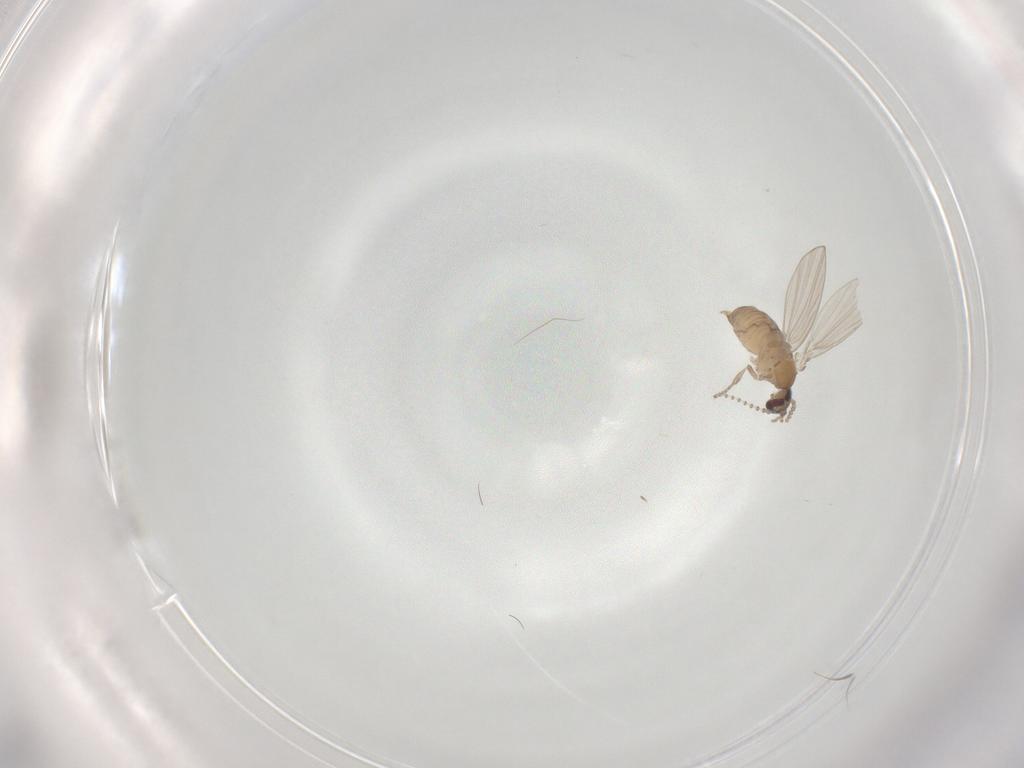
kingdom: Animalia
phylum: Arthropoda
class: Insecta
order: Diptera
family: Psychodidae
